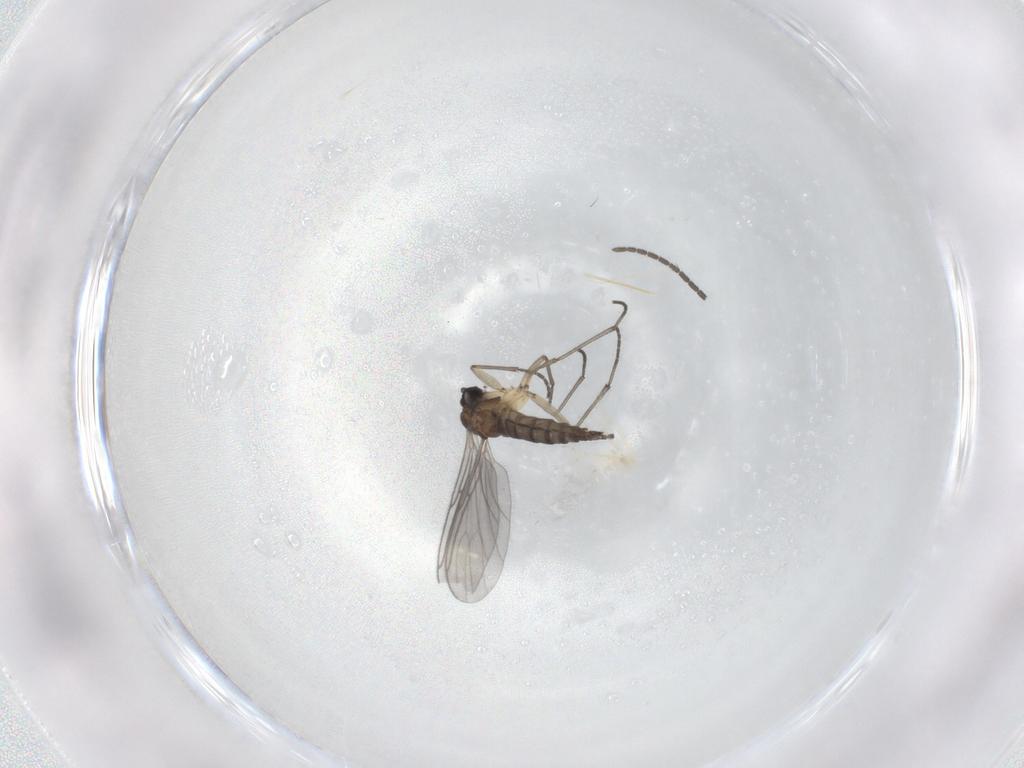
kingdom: Animalia
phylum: Arthropoda
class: Insecta
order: Diptera
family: Sciaridae
